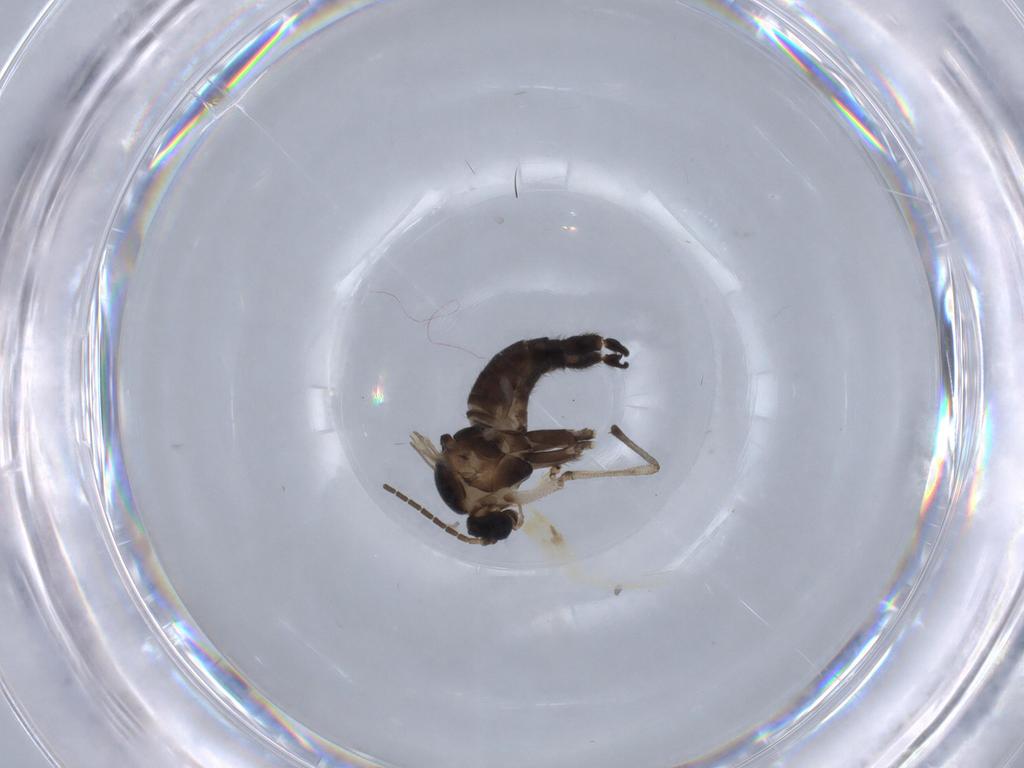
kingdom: Animalia
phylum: Arthropoda
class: Insecta
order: Diptera
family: Sciaridae
